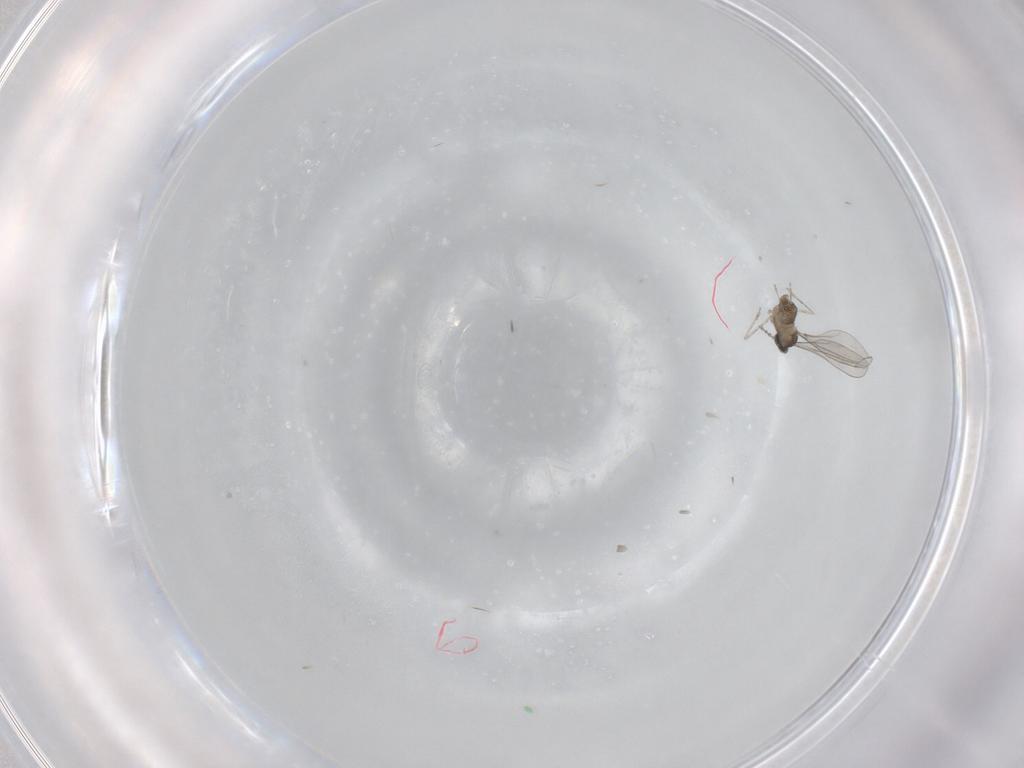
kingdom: Animalia
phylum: Arthropoda
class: Insecta
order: Diptera
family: Cecidomyiidae
